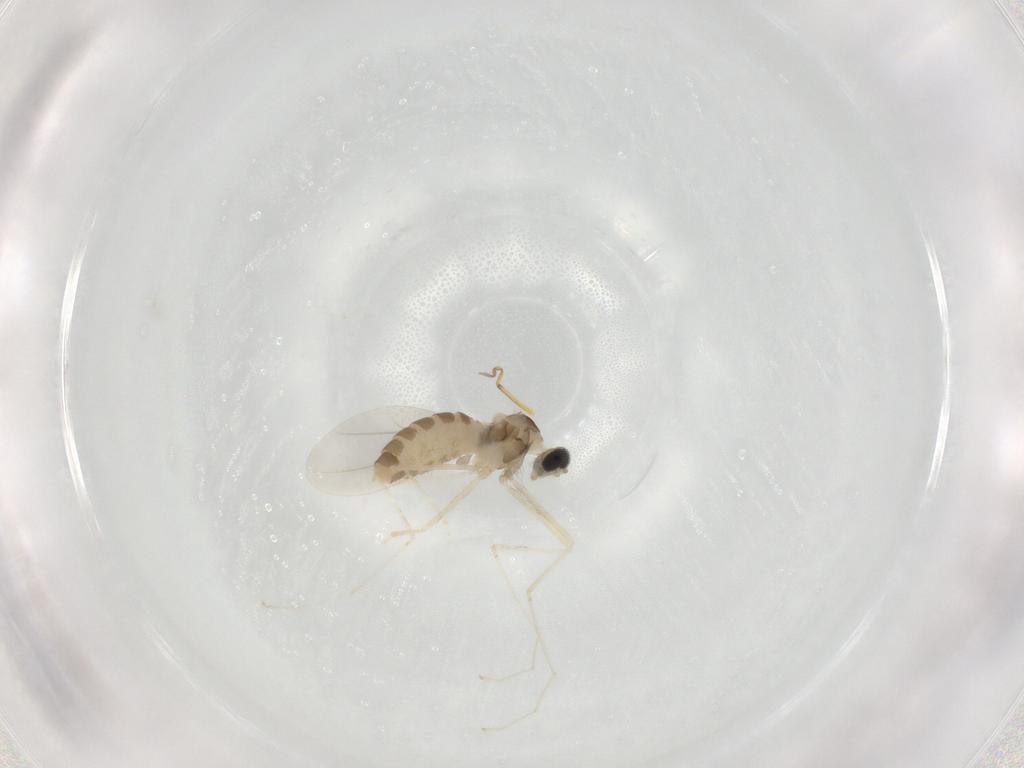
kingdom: Animalia
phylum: Arthropoda
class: Insecta
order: Diptera
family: Cecidomyiidae
